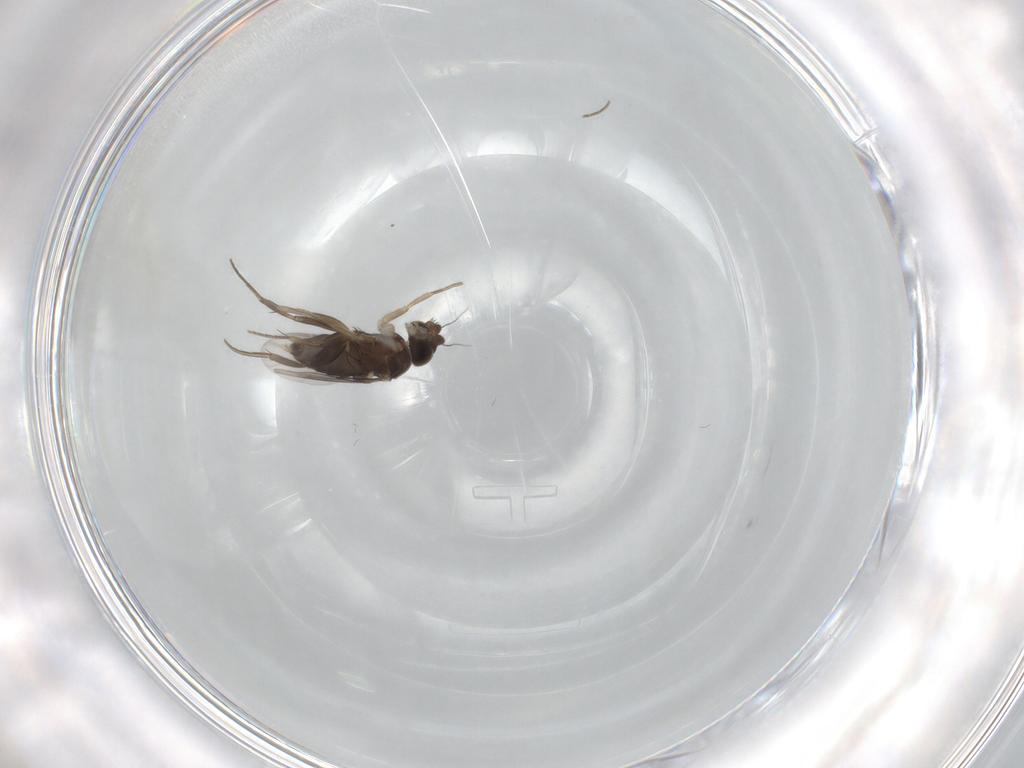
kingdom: Animalia
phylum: Arthropoda
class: Insecta
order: Diptera
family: Phoridae
